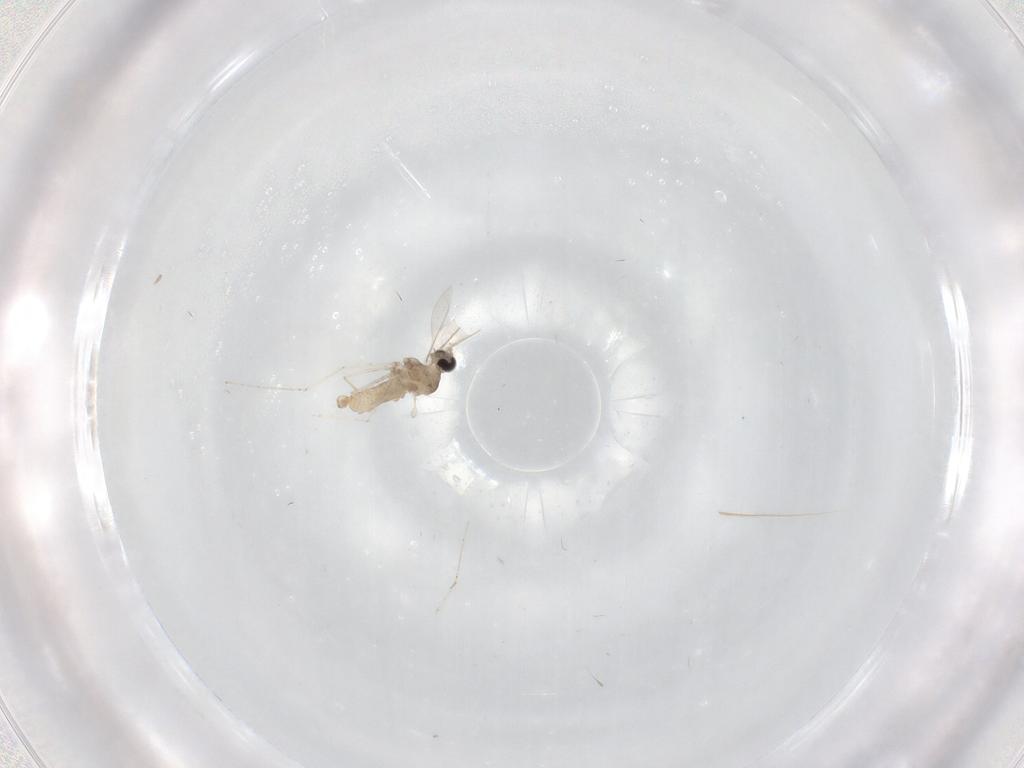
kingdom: Animalia
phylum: Arthropoda
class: Insecta
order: Diptera
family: Cecidomyiidae
